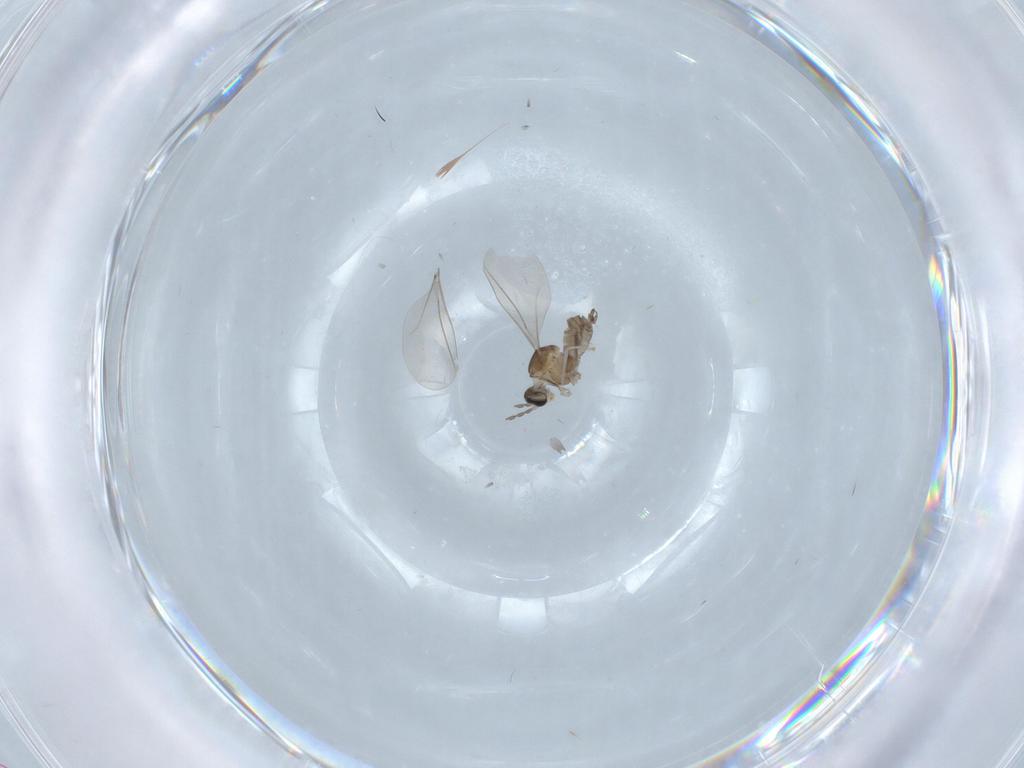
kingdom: Animalia
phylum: Arthropoda
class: Insecta
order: Diptera
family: Cecidomyiidae
